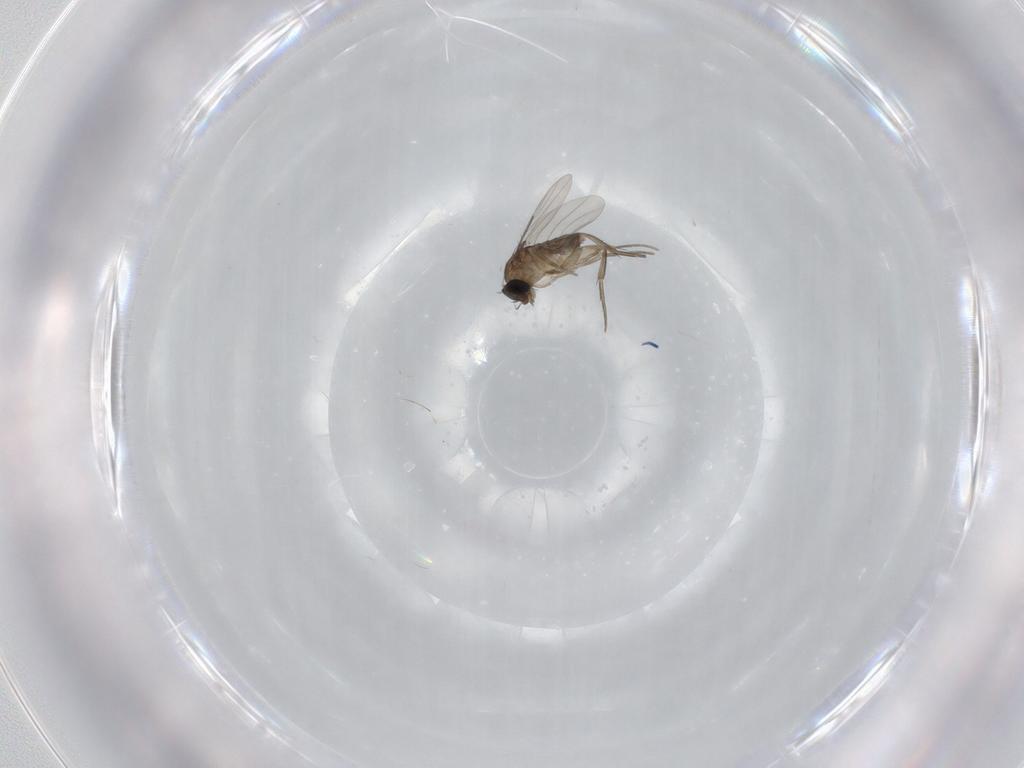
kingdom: Animalia
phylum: Arthropoda
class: Insecta
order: Diptera
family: Phoridae
